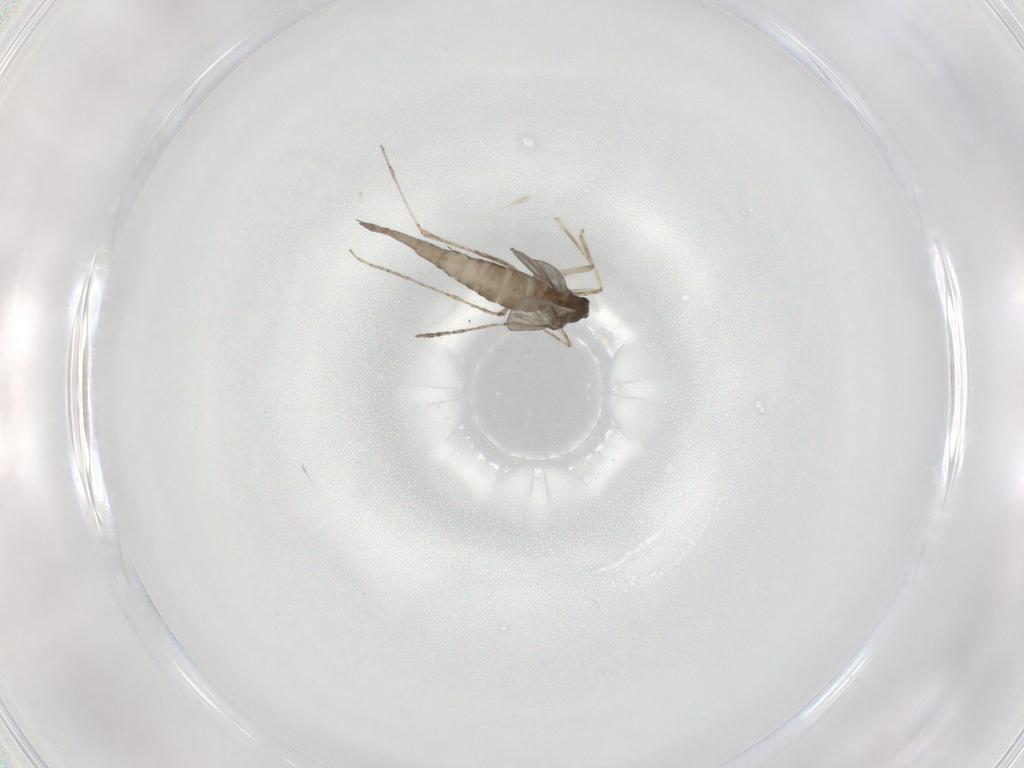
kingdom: Animalia
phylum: Arthropoda
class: Insecta
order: Diptera
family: Cecidomyiidae
